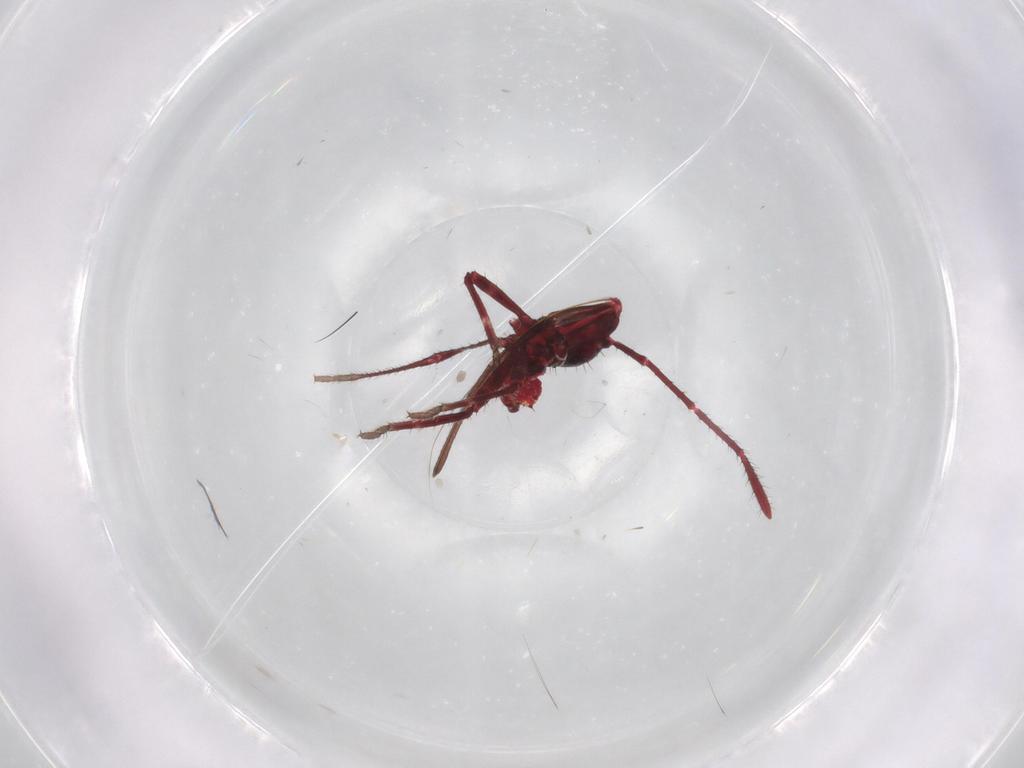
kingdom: Animalia
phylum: Arthropoda
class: Insecta
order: Hemiptera
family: Coreidae
